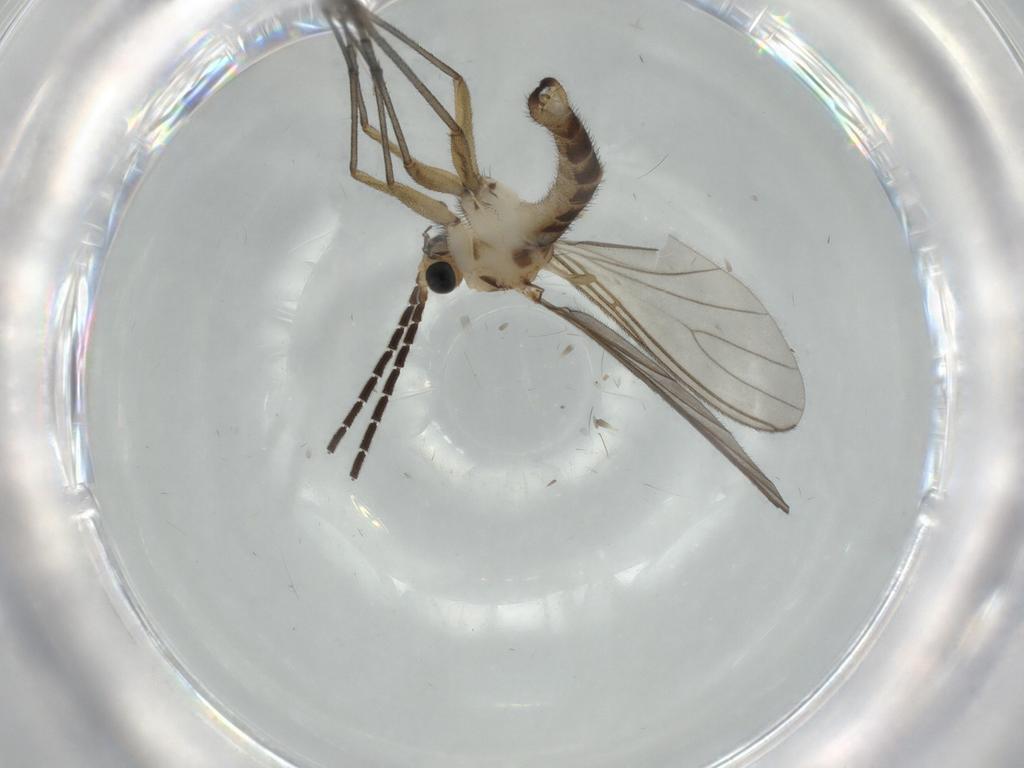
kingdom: Animalia
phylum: Arthropoda
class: Insecta
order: Diptera
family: Sciaridae
